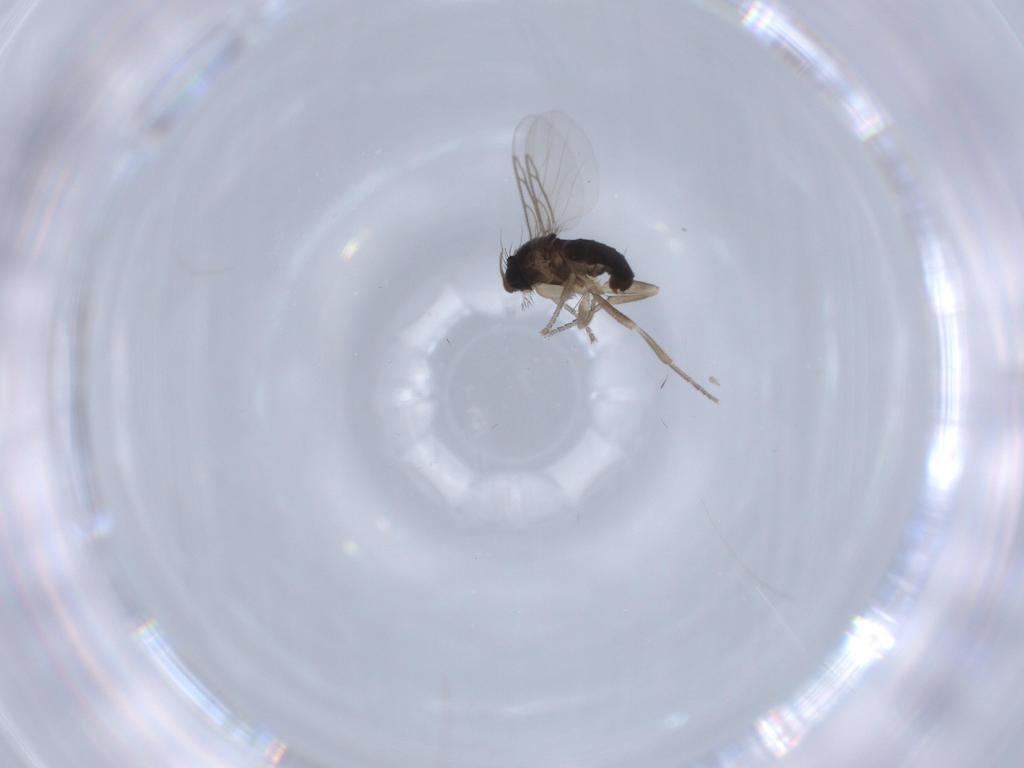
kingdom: Animalia
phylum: Arthropoda
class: Insecta
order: Diptera
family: Phoridae
